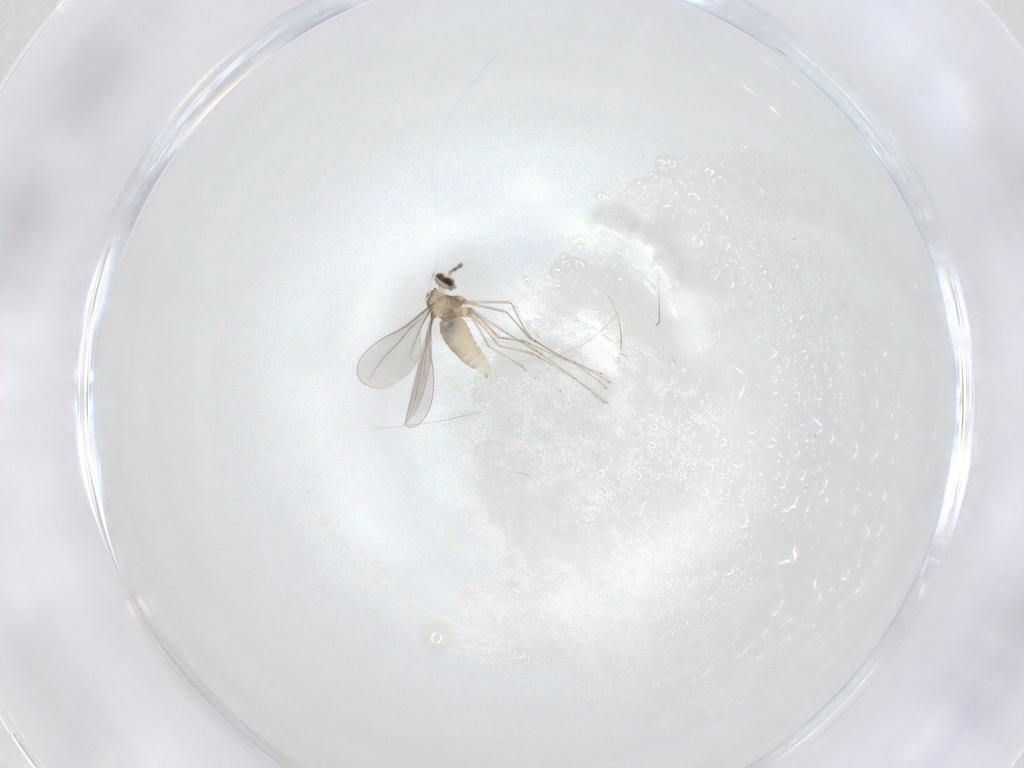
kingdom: Animalia
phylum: Arthropoda
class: Insecta
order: Diptera
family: Cecidomyiidae
